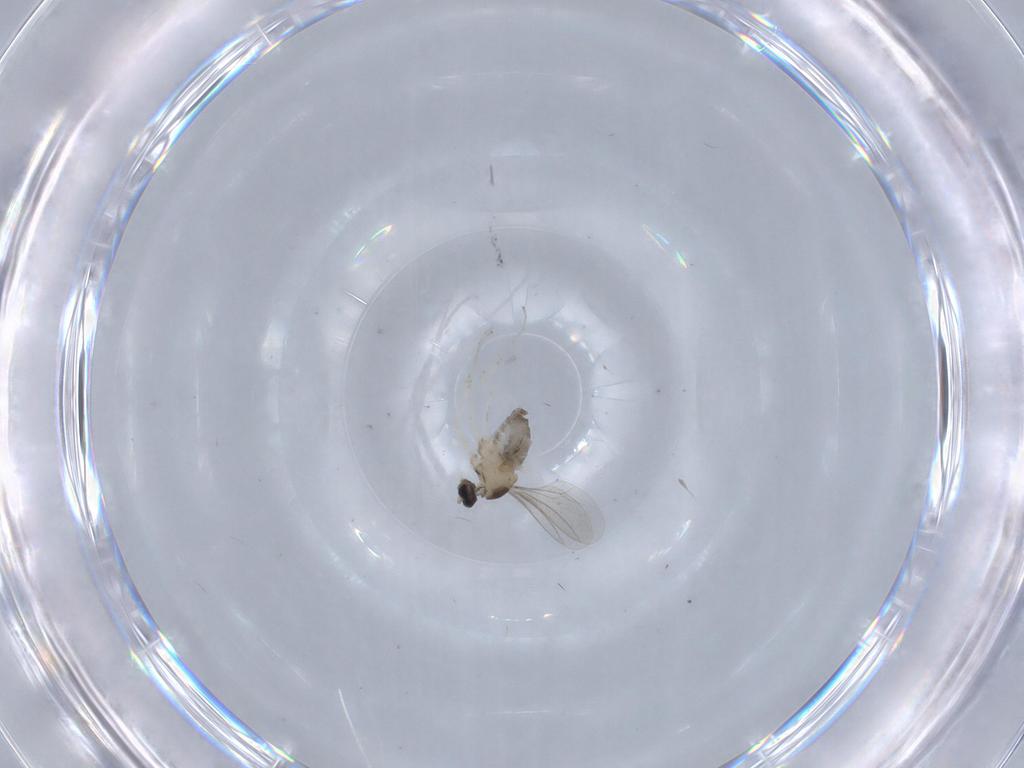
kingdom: Animalia
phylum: Arthropoda
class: Insecta
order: Diptera
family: Cecidomyiidae
